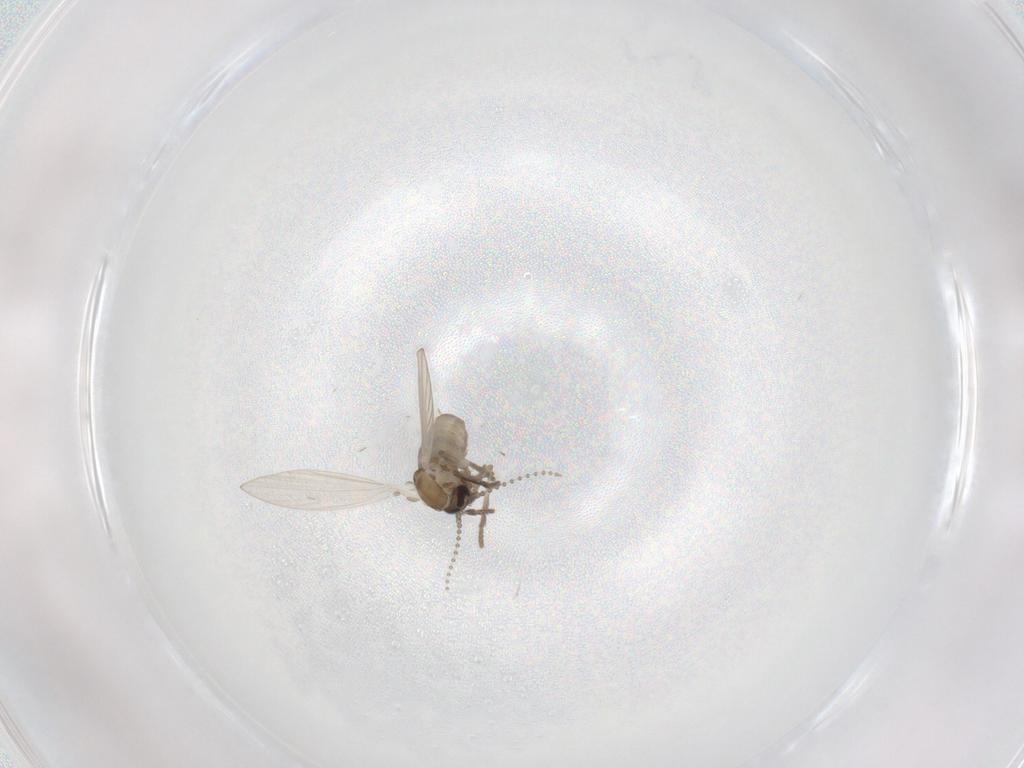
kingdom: Animalia
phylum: Arthropoda
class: Insecta
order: Diptera
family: Psychodidae
